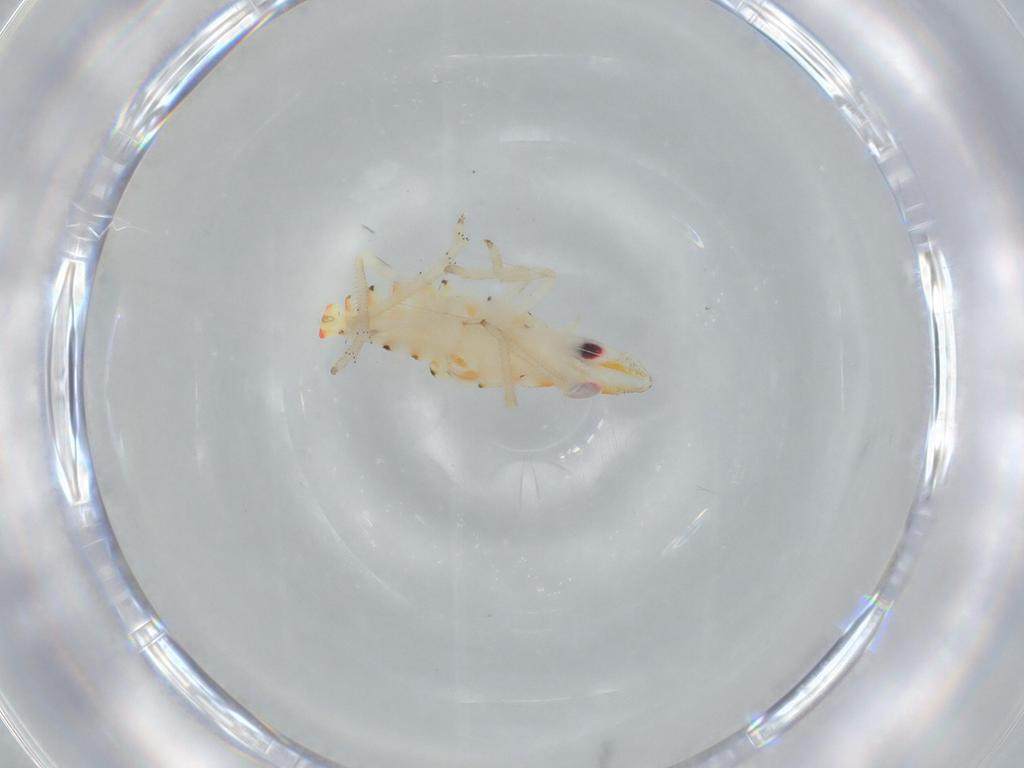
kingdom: Animalia
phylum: Arthropoda
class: Insecta
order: Hemiptera
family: Tropiduchidae
